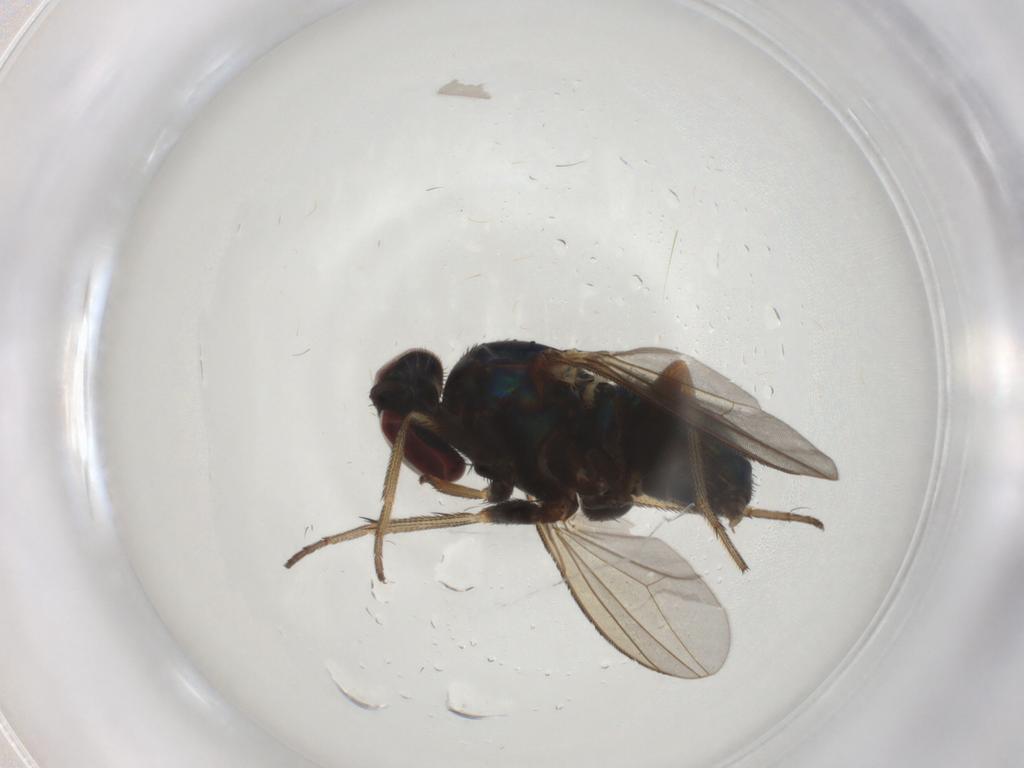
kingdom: Animalia
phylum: Arthropoda
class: Insecta
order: Diptera
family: Dolichopodidae
